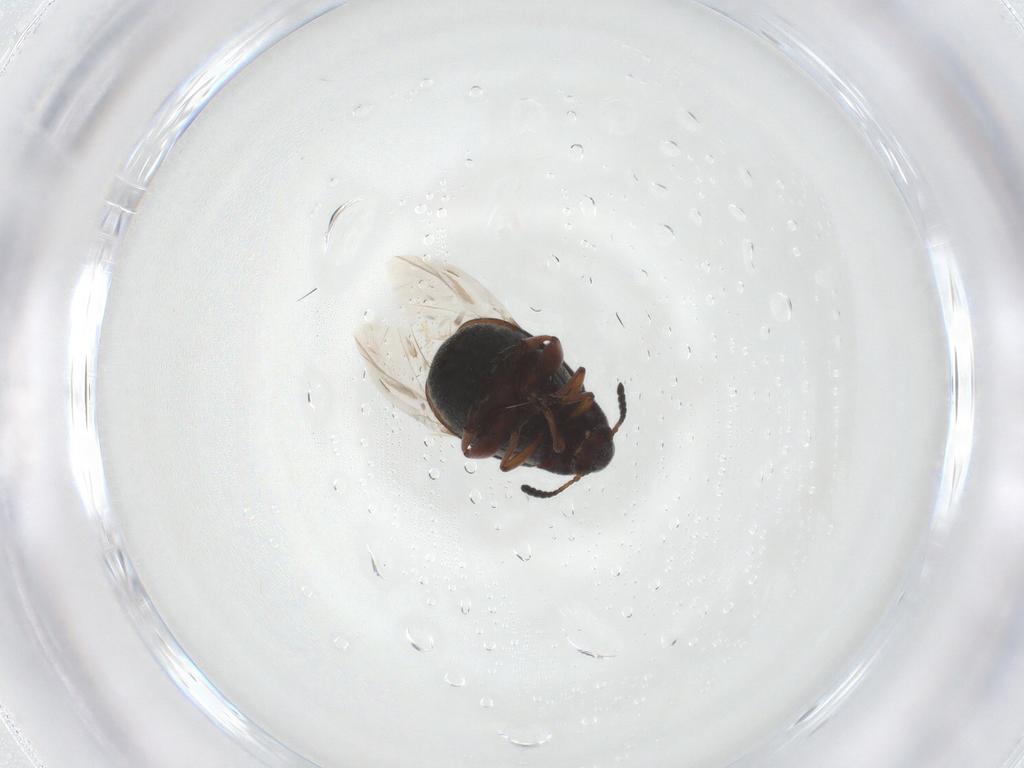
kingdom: Animalia
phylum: Arthropoda
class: Insecta
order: Coleoptera
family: Chrysomelidae
